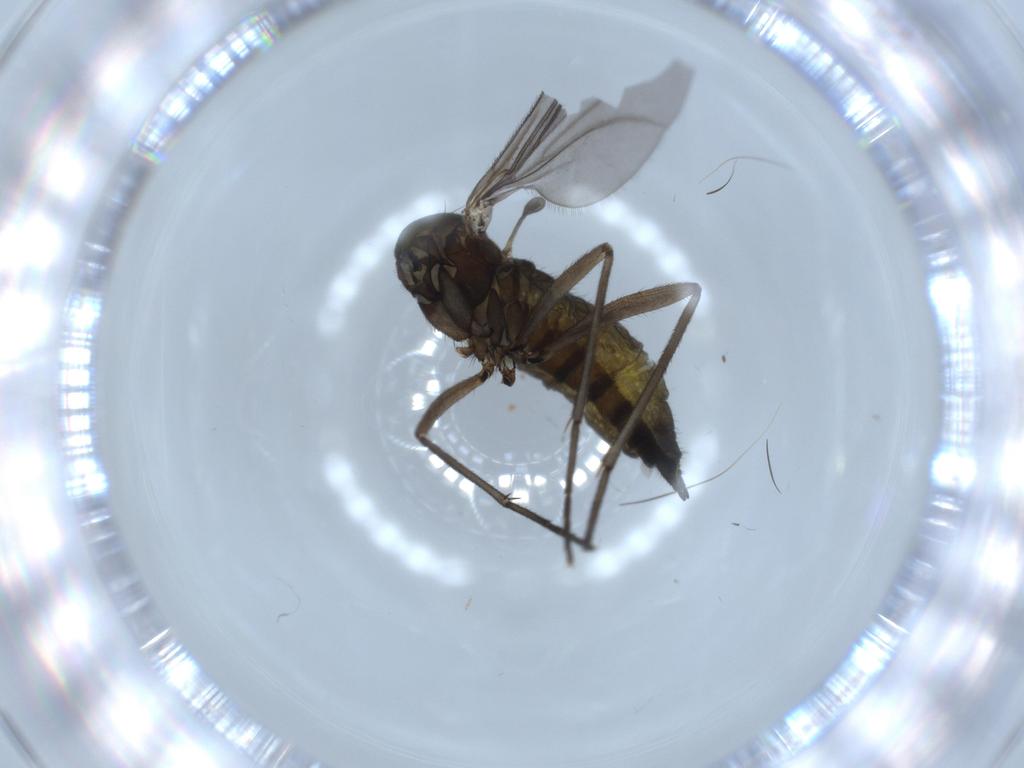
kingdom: Animalia
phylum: Arthropoda
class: Insecta
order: Diptera
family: Sciaridae
